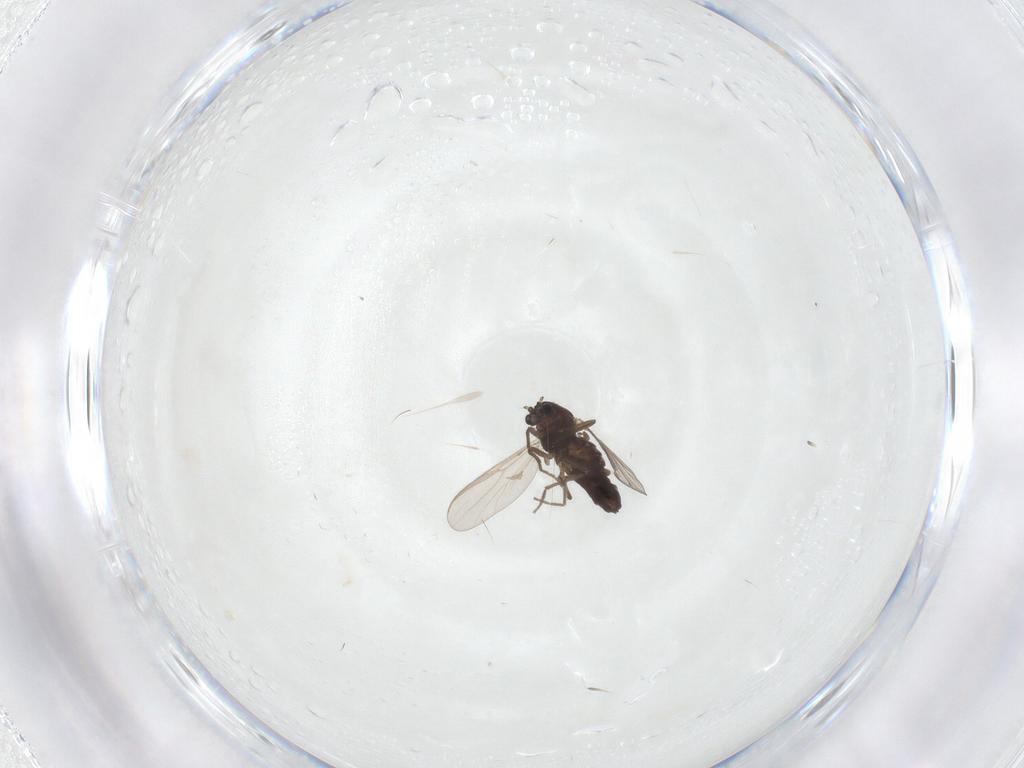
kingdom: Animalia
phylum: Arthropoda
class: Insecta
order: Diptera
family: Chironomidae
